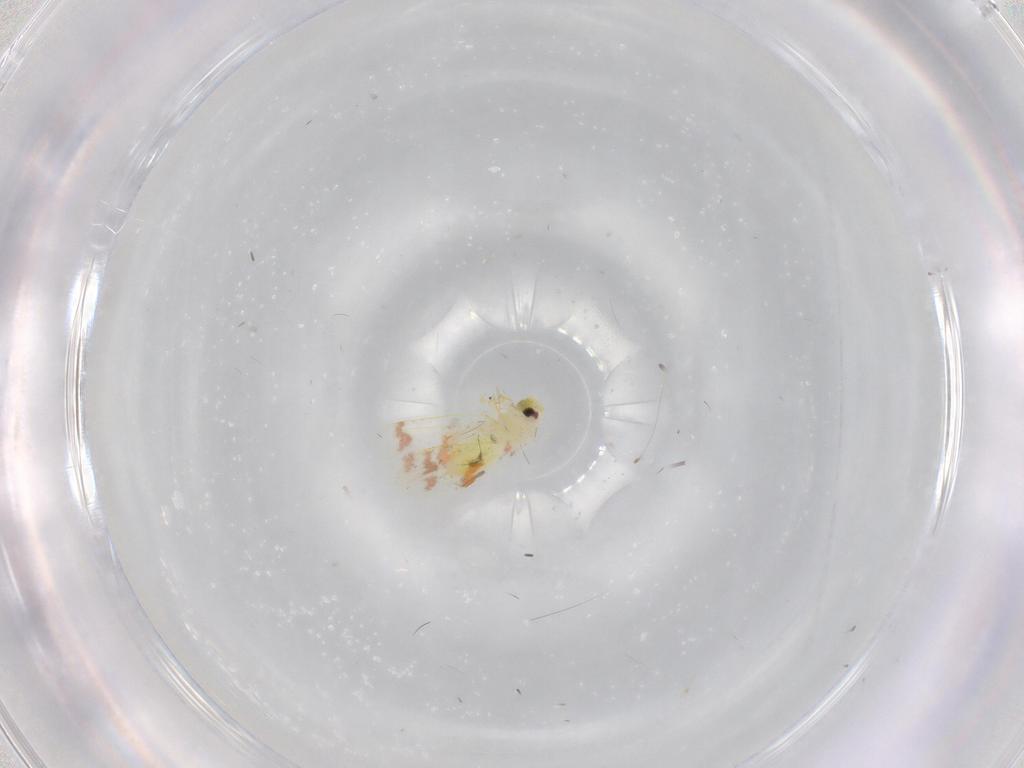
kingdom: Animalia
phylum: Arthropoda
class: Insecta
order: Hemiptera
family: Aleyrodidae
